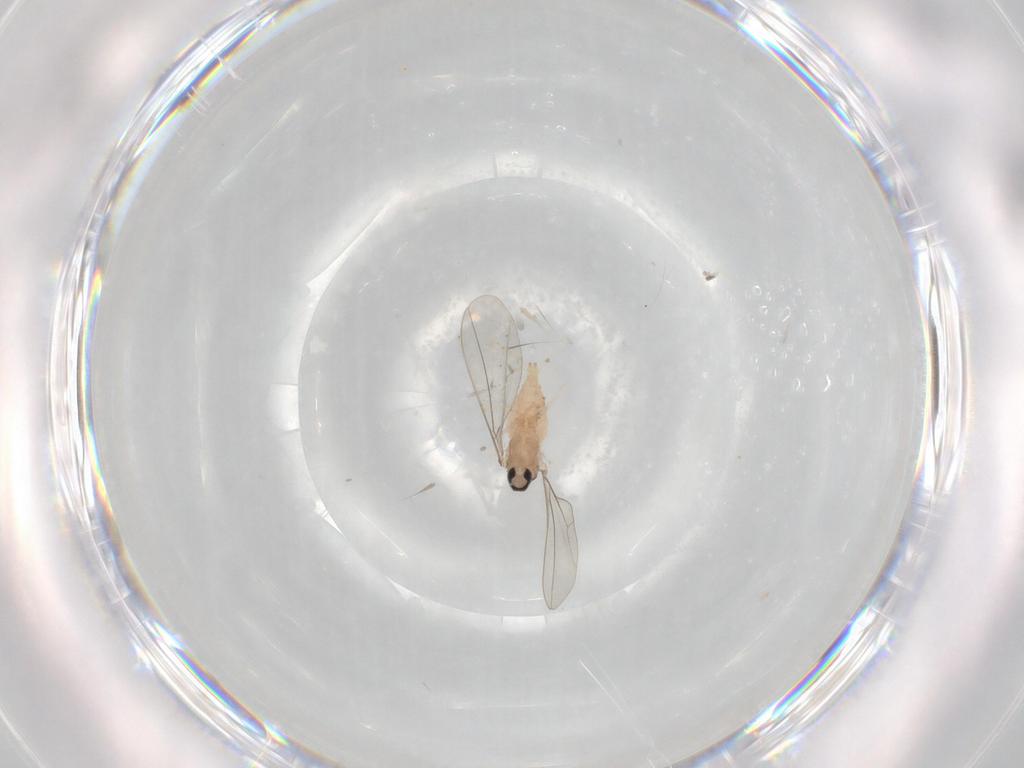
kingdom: Animalia
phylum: Arthropoda
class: Insecta
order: Diptera
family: Cecidomyiidae
